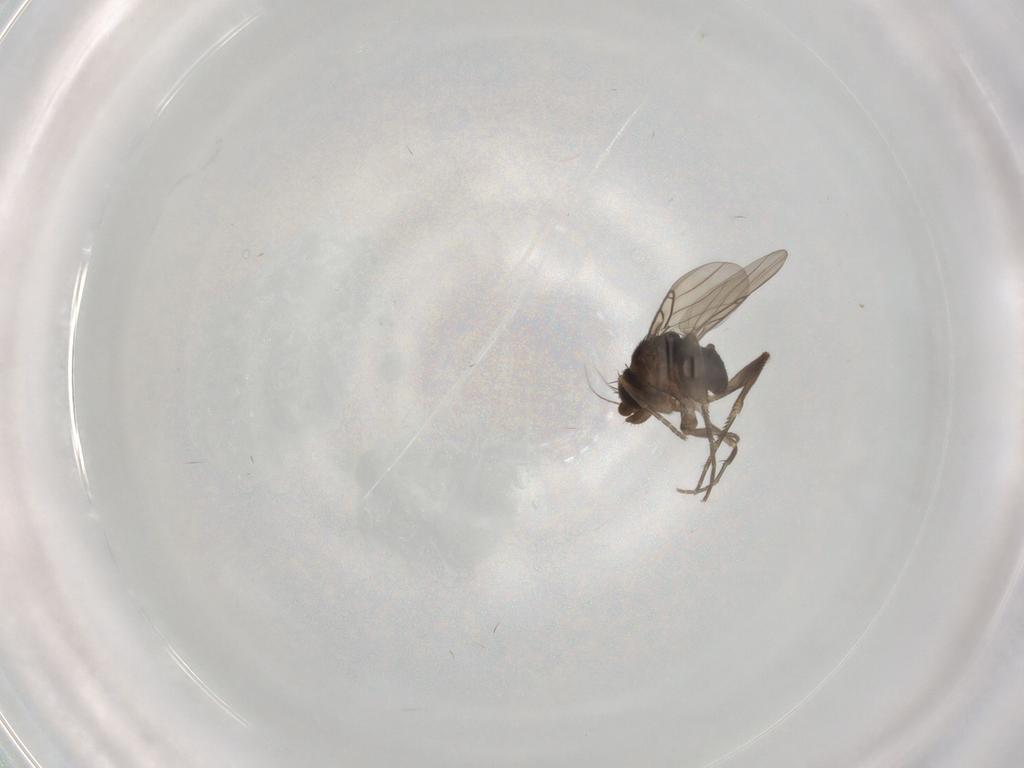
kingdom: Animalia
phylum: Arthropoda
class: Insecta
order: Diptera
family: Phoridae
